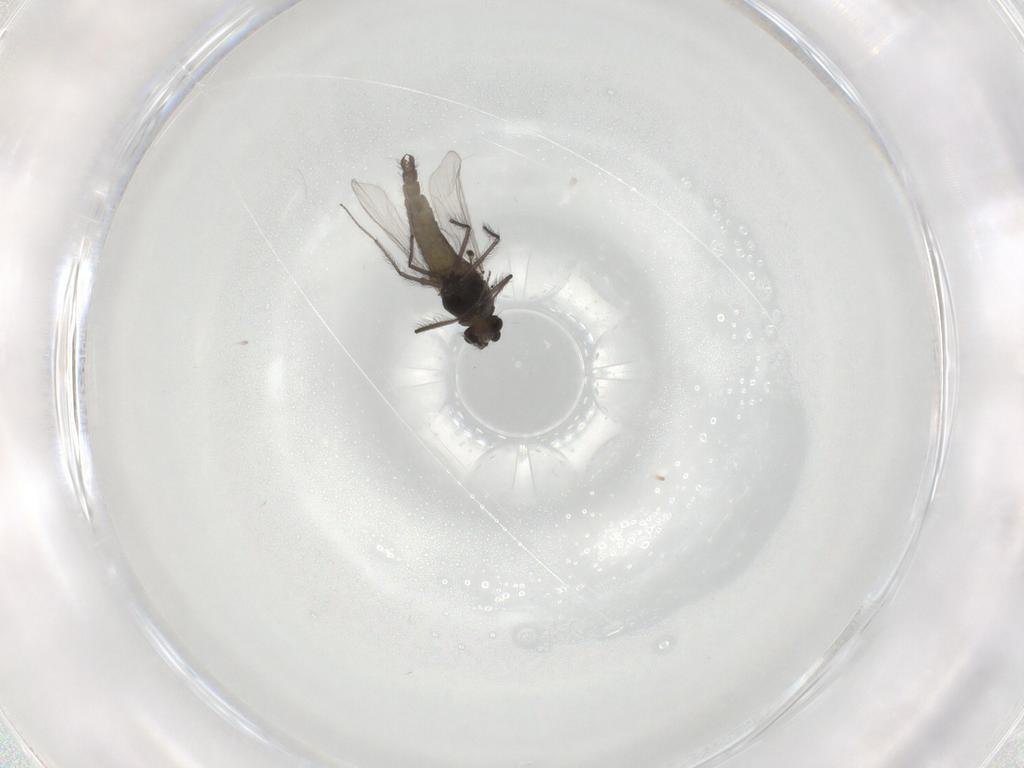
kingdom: Animalia
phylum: Arthropoda
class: Insecta
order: Diptera
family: Chironomidae
